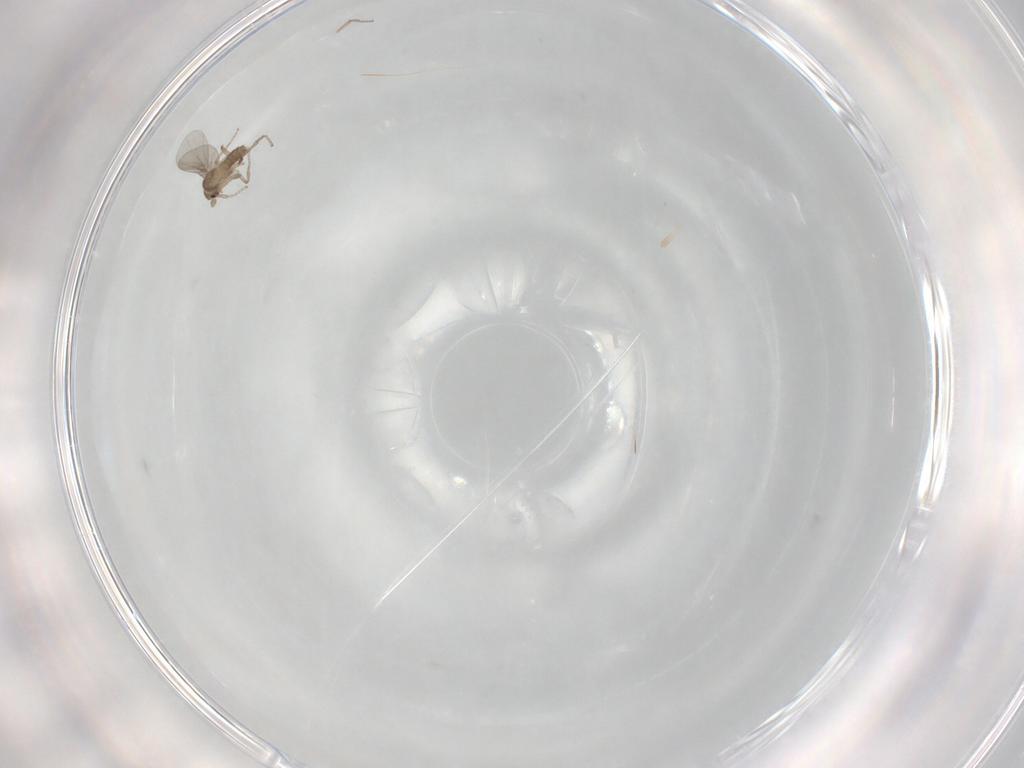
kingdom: Animalia
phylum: Arthropoda
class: Insecta
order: Diptera
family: Phoridae
